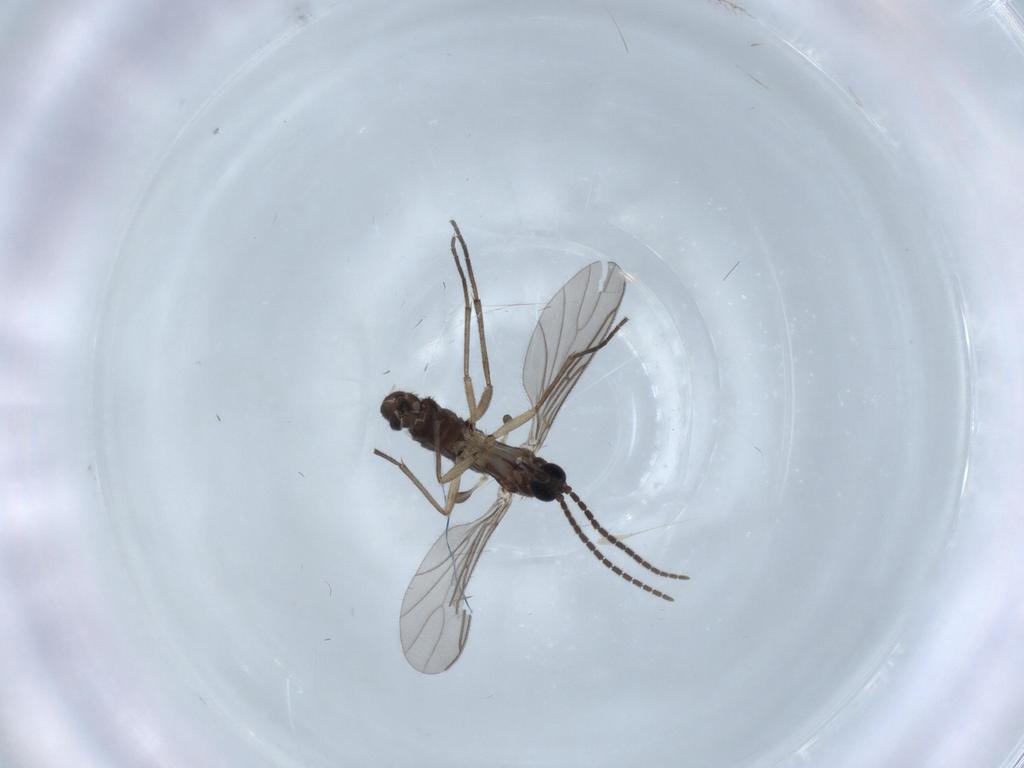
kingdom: Animalia
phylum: Arthropoda
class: Insecta
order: Diptera
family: Sciaridae
